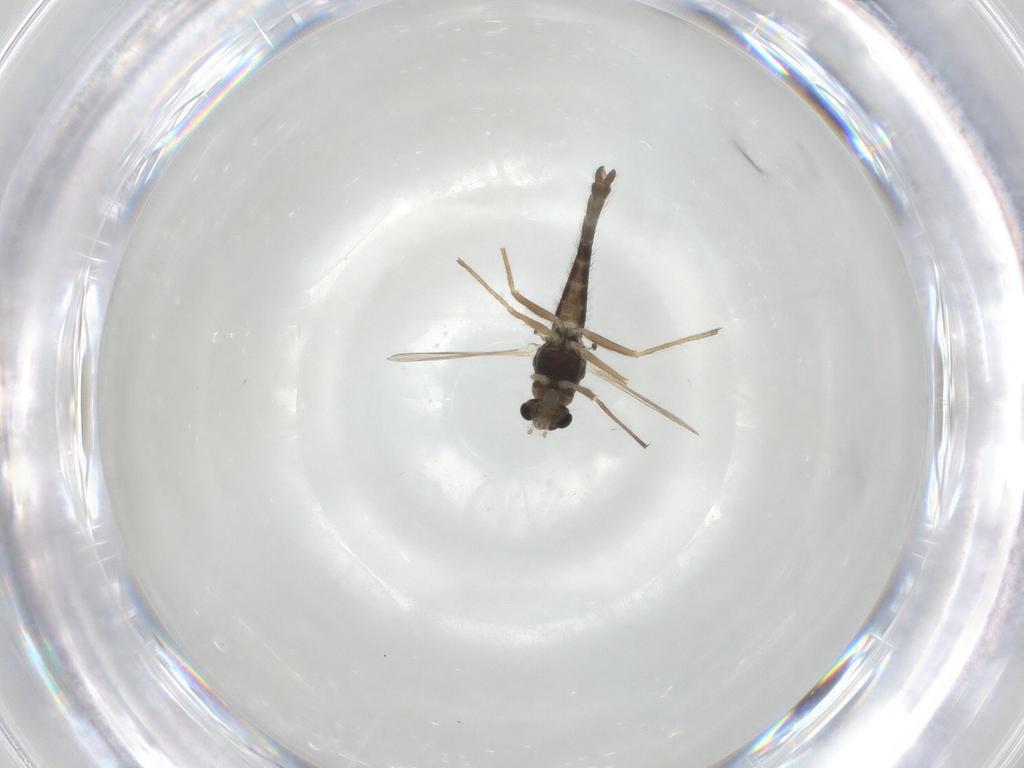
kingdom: Animalia
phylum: Arthropoda
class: Insecta
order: Diptera
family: Chironomidae
